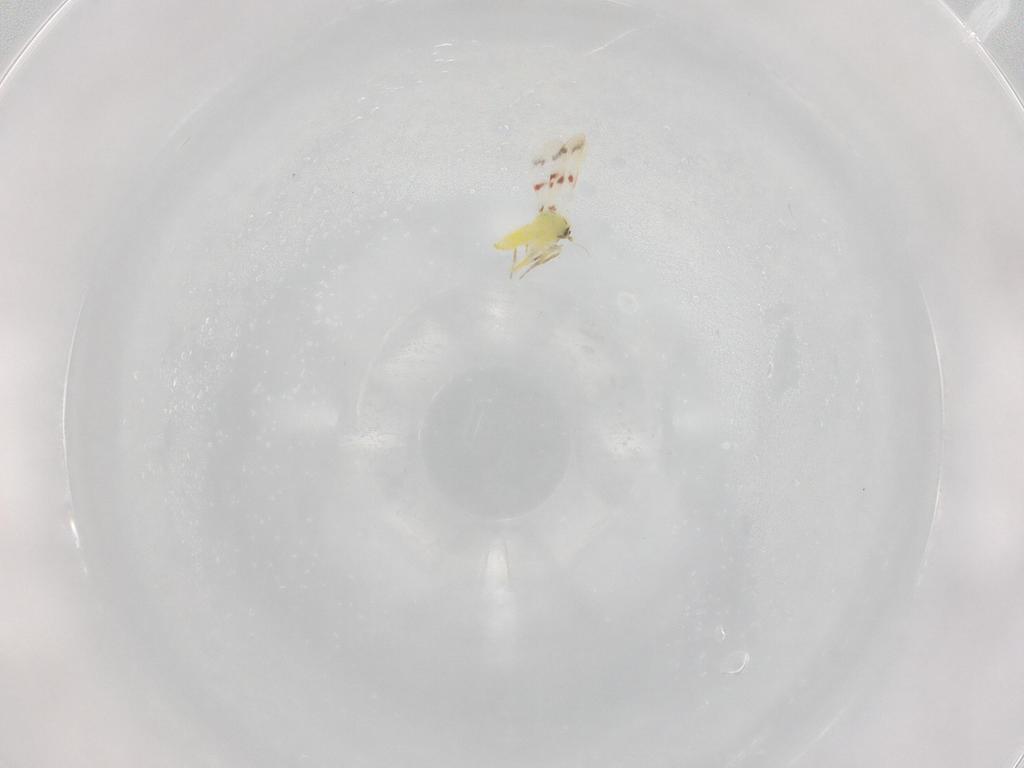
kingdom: Animalia
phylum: Arthropoda
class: Insecta
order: Hemiptera
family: Aleyrodidae
